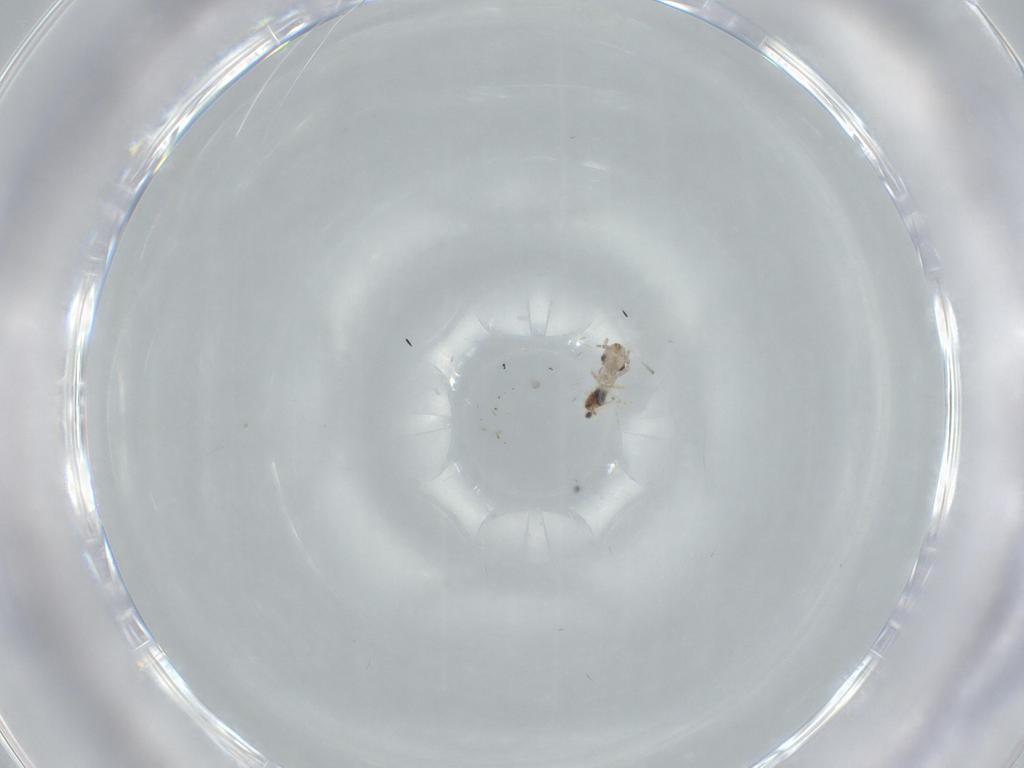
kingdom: Animalia
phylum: Arthropoda
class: Insecta
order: Psocodea
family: Lepidopsocidae
